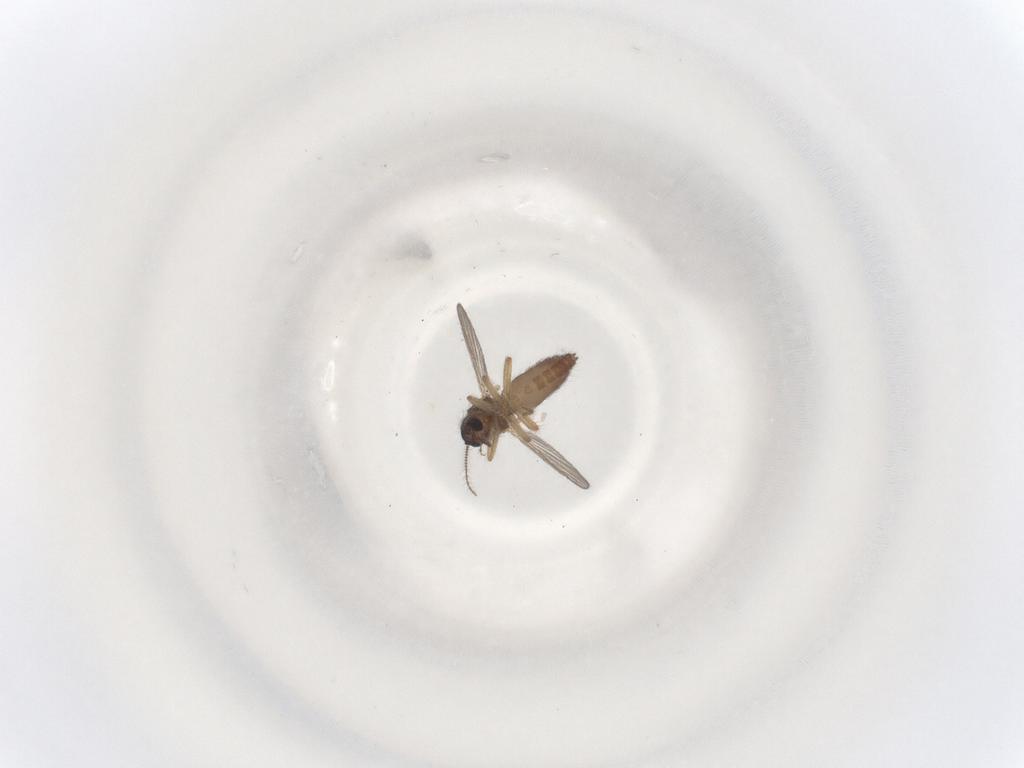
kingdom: Animalia
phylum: Arthropoda
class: Insecta
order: Diptera
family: Ceratopogonidae
